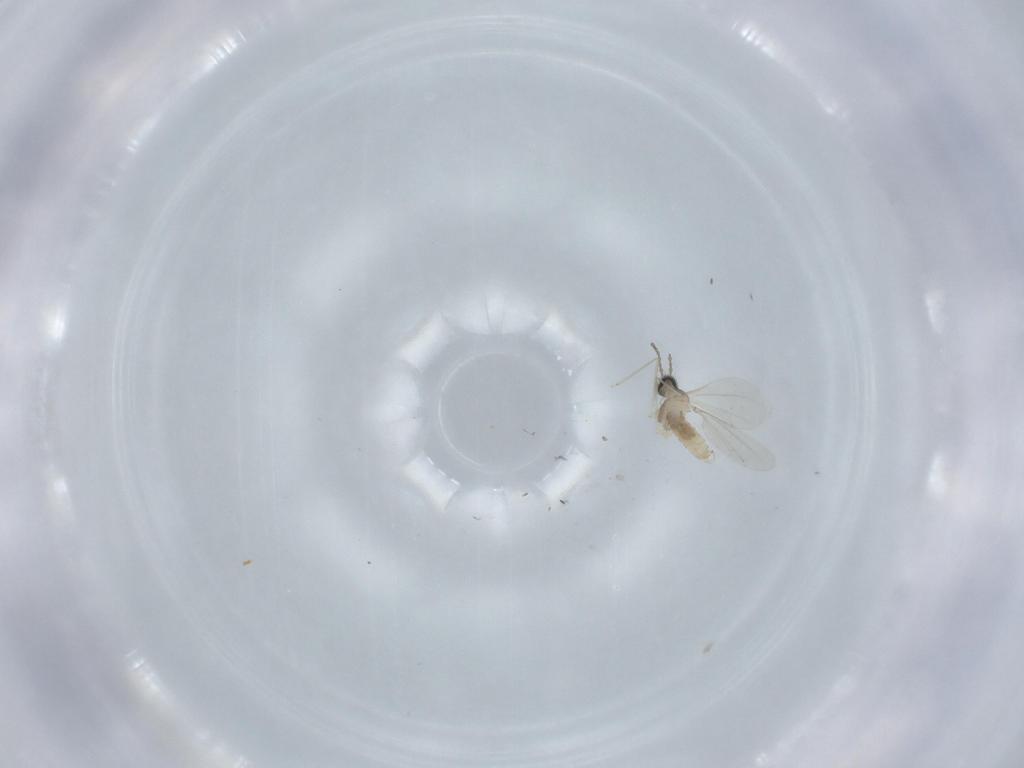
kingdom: Animalia
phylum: Arthropoda
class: Insecta
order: Diptera
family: Cecidomyiidae
